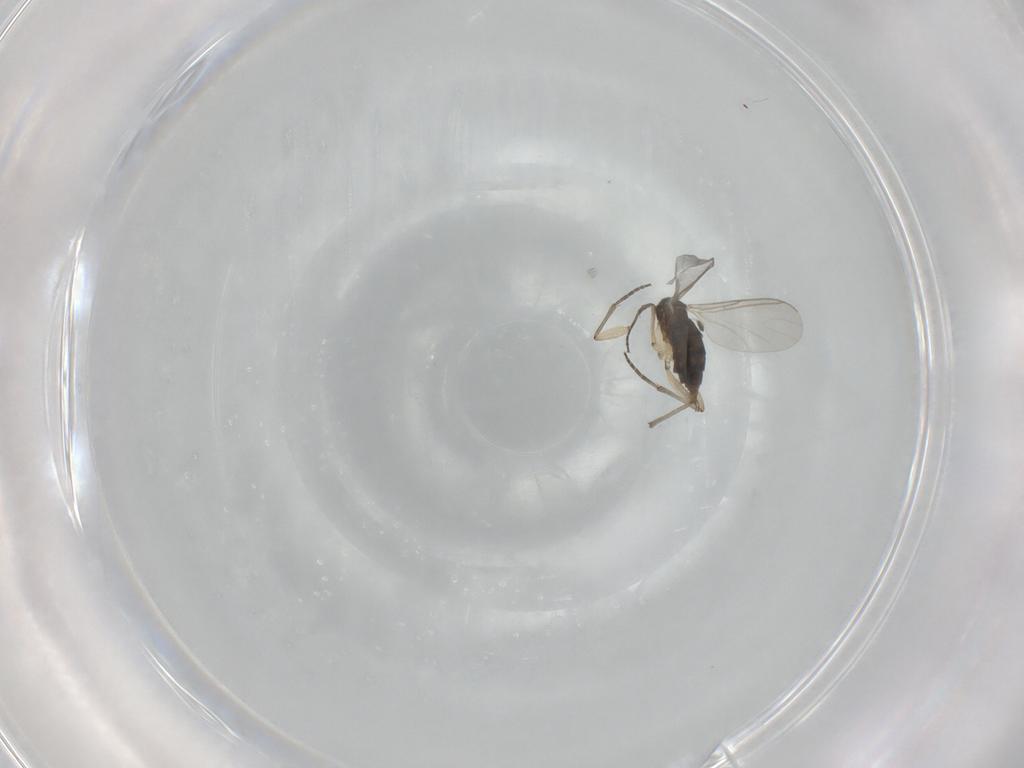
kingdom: Animalia
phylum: Arthropoda
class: Insecta
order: Diptera
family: Sciaridae
